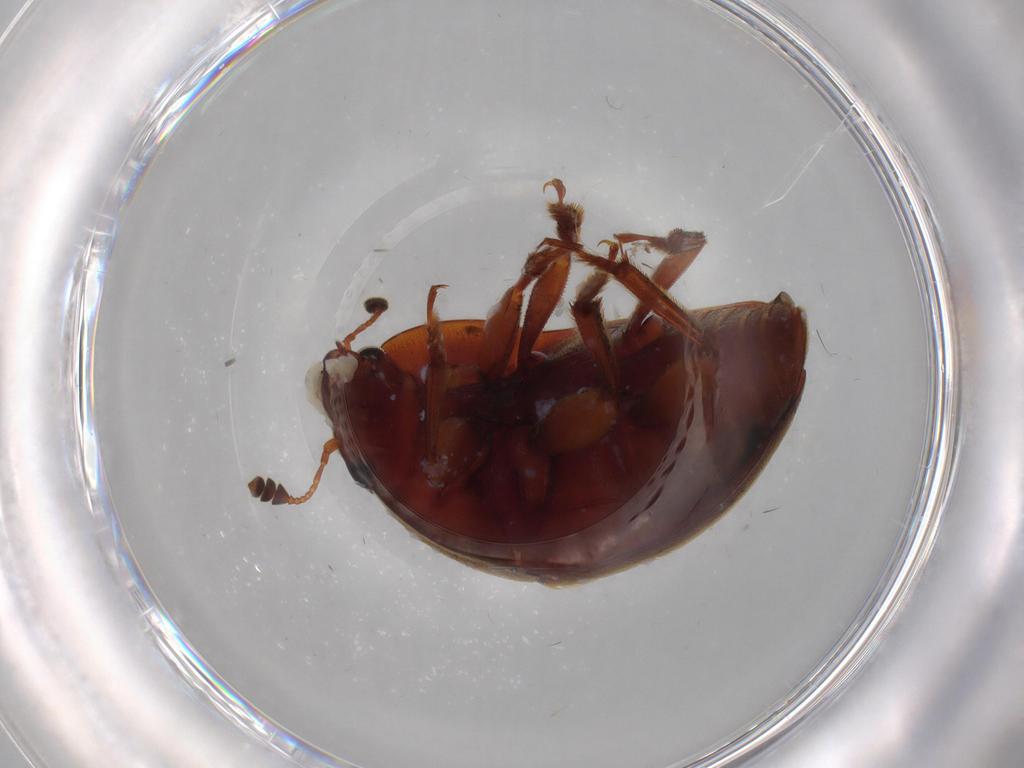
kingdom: Animalia
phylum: Arthropoda
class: Insecta
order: Coleoptera
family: Nitidulidae
